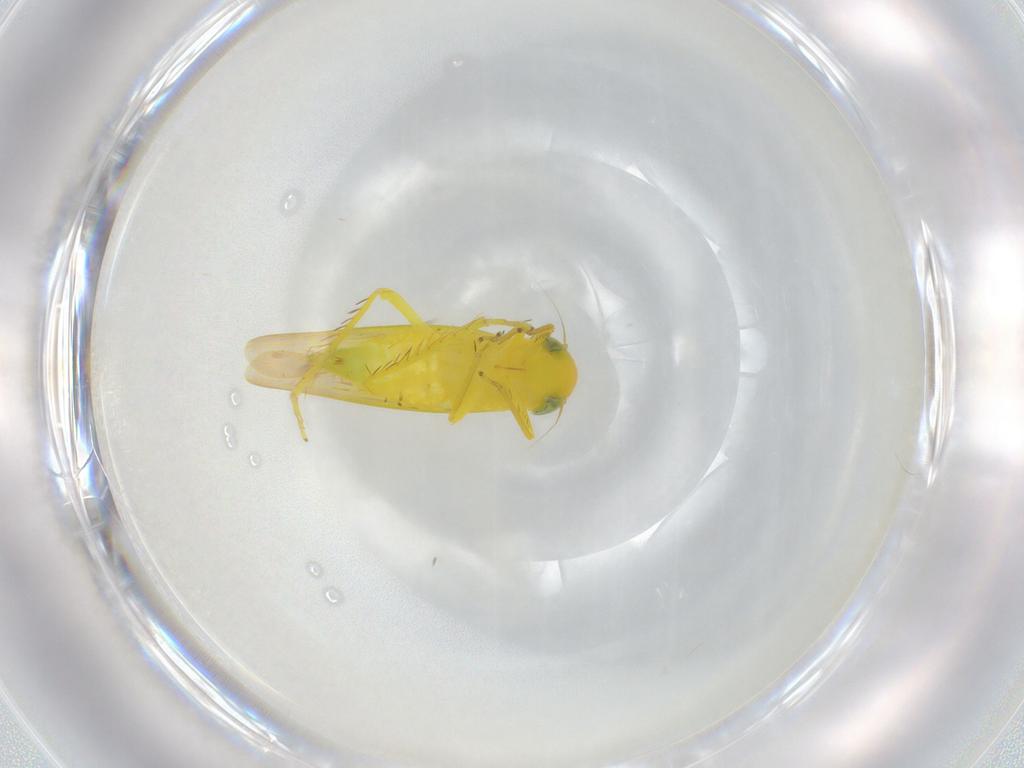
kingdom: Animalia
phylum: Arthropoda
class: Insecta
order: Hemiptera
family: Cicadellidae
